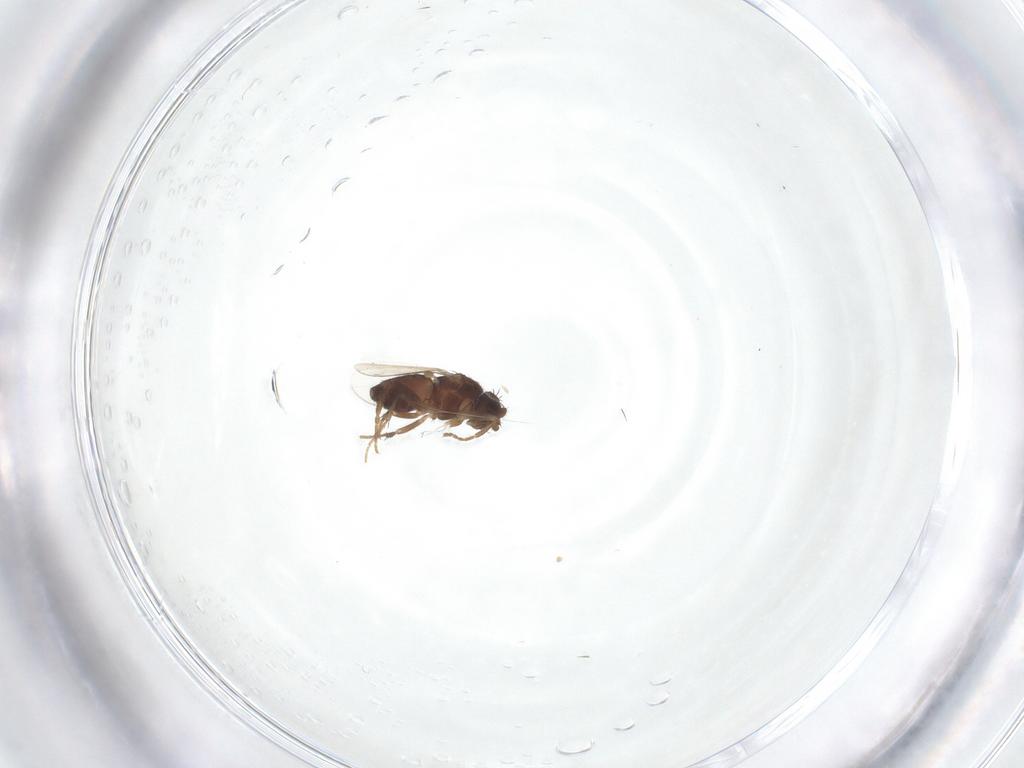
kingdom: Animalia
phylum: Arthropoda
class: Insecta
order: Diptera
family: Sphaeroceridae
